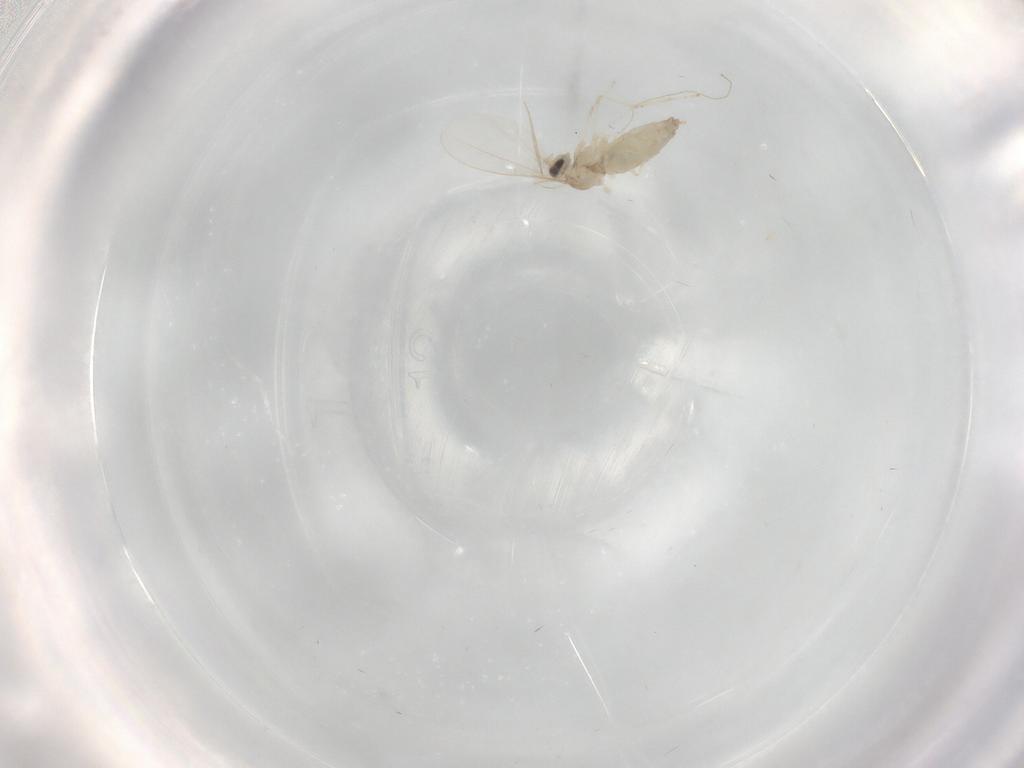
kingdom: Animalia
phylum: Arthropoda
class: Insecta
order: Diptera
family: Cecidomyiidae
